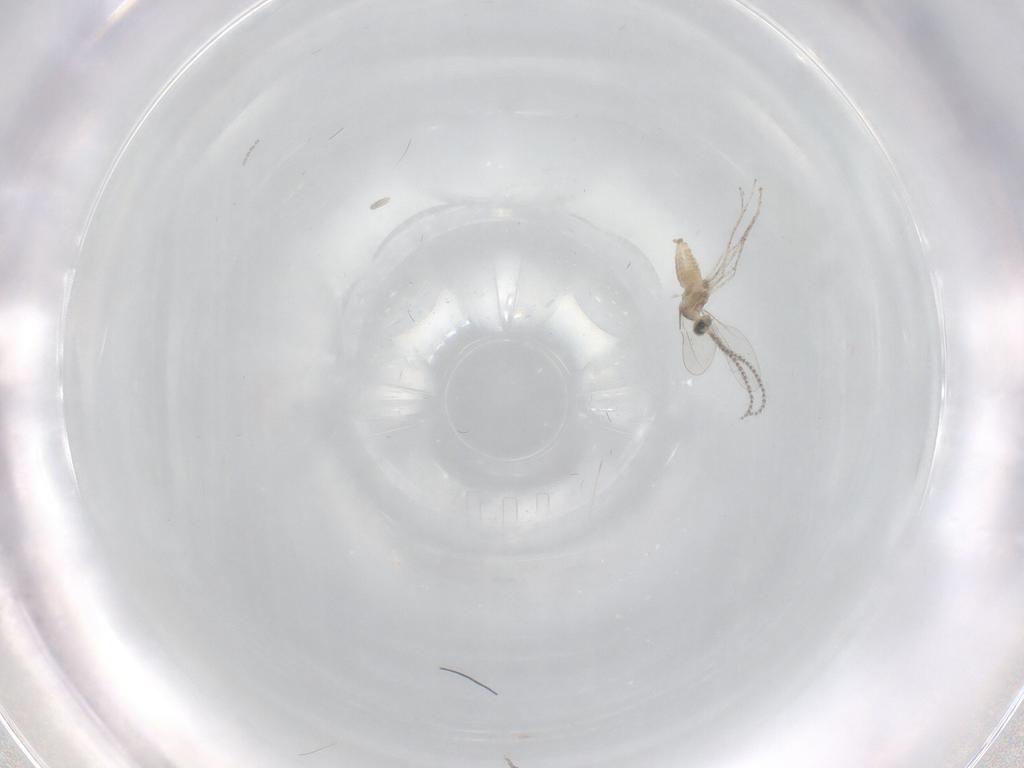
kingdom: Animalia
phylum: Arthropoda
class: Insecta
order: Diptera
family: Cecidomyiidae
